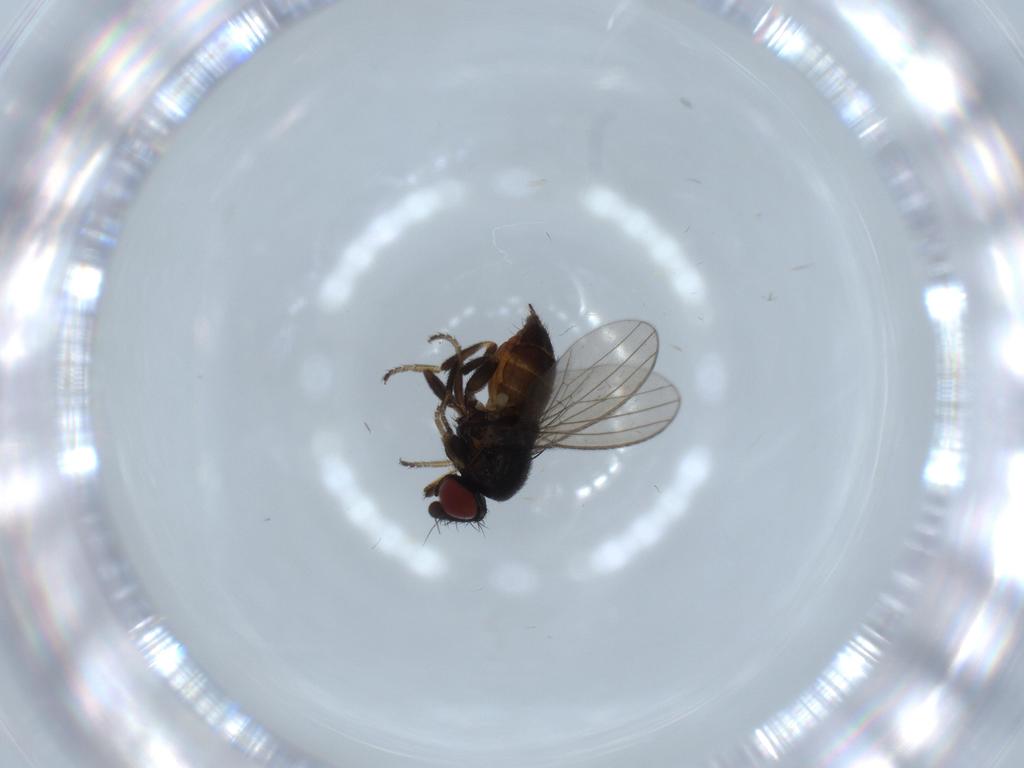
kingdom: Animalia
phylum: Arthropoda
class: Insecta
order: Diptera
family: Milichiidae
